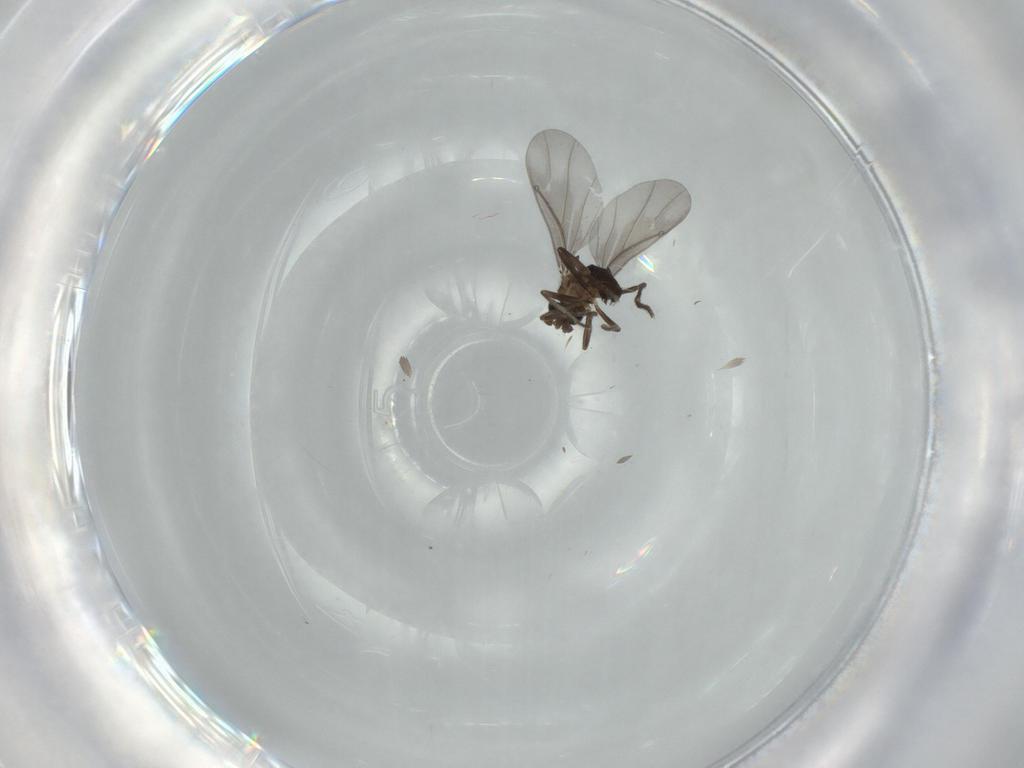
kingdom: Animalia
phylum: Arthropoda
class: Insecta
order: Diptera
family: Phoridae
